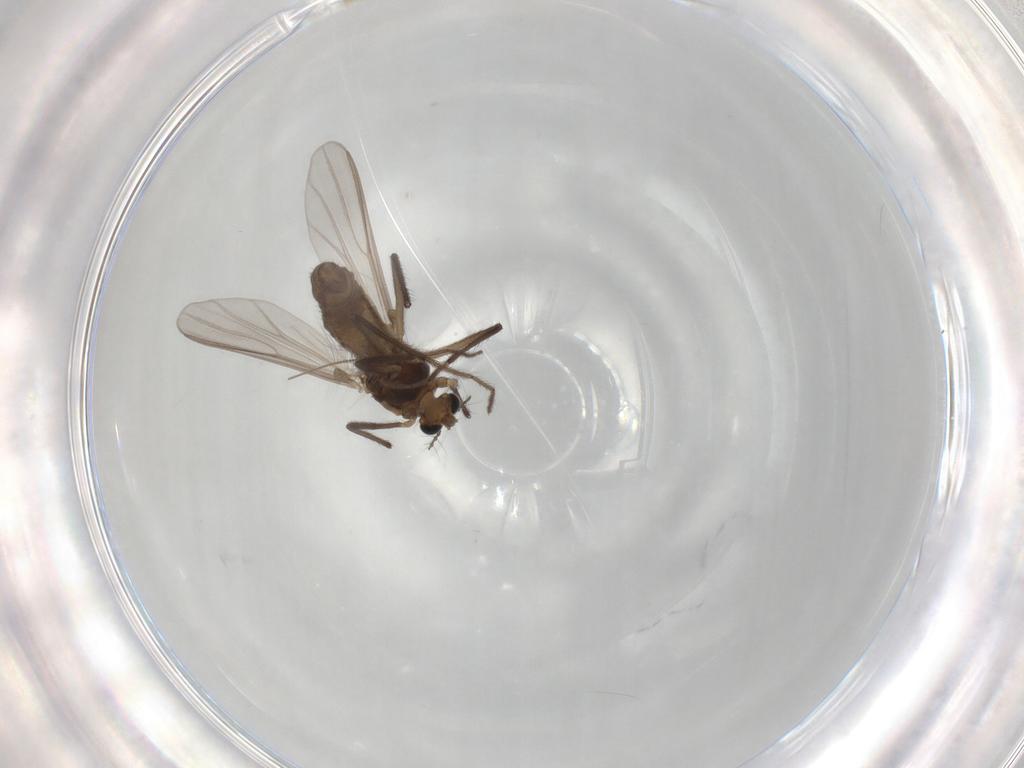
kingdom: Animalia
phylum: Arthropoda
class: Insecta
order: Diptera
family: Chironomidae
